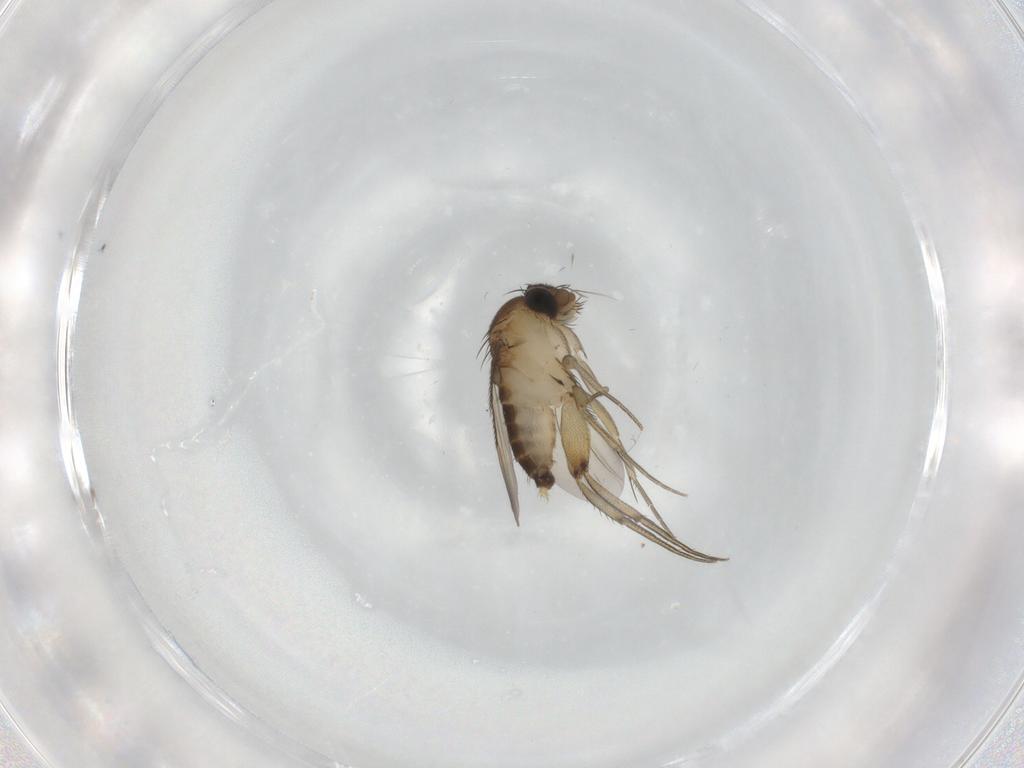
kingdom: Animalia
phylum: Arthropoda
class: Insecta
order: Diptera
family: Phoridae
